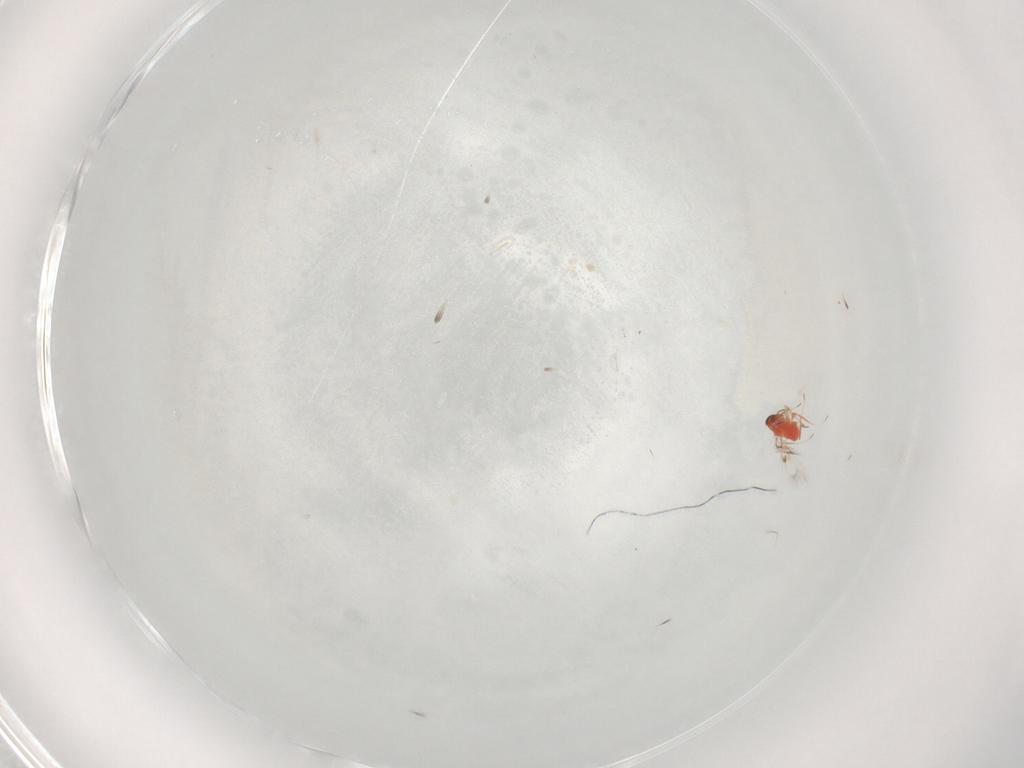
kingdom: Animalia
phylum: Arthropoda
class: Insecta
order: Hymenoptera
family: Trichogrammatidae
